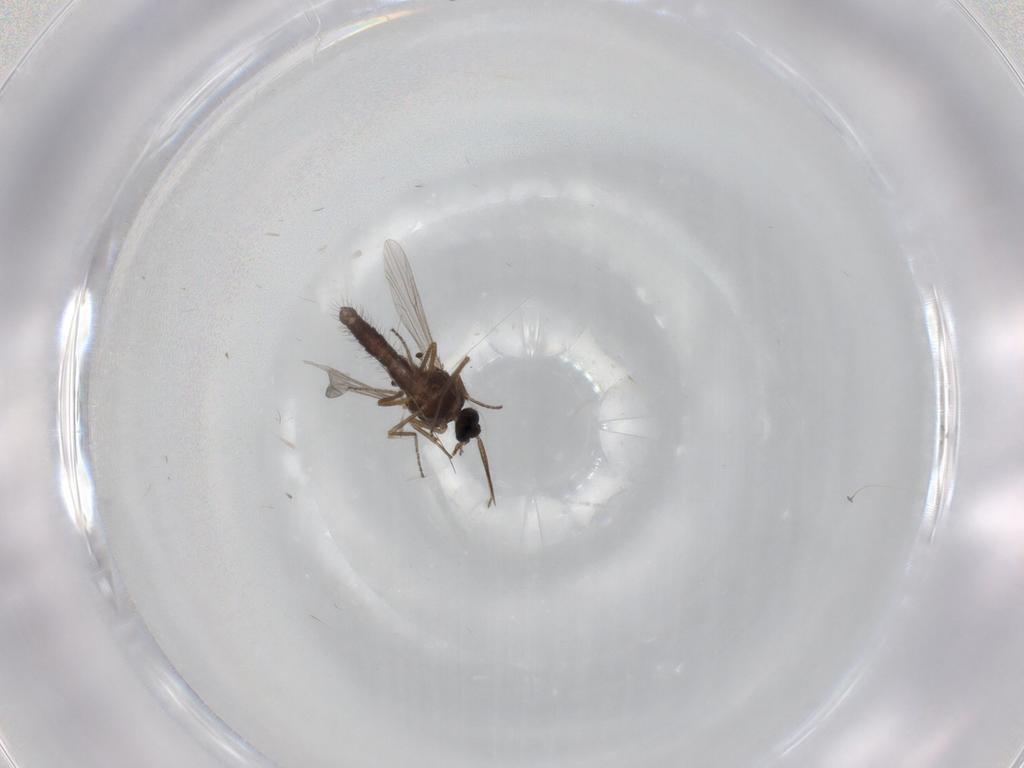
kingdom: Animalia
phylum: Arthropoda
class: Insecta
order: Diptera
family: Ceratopogonidae
